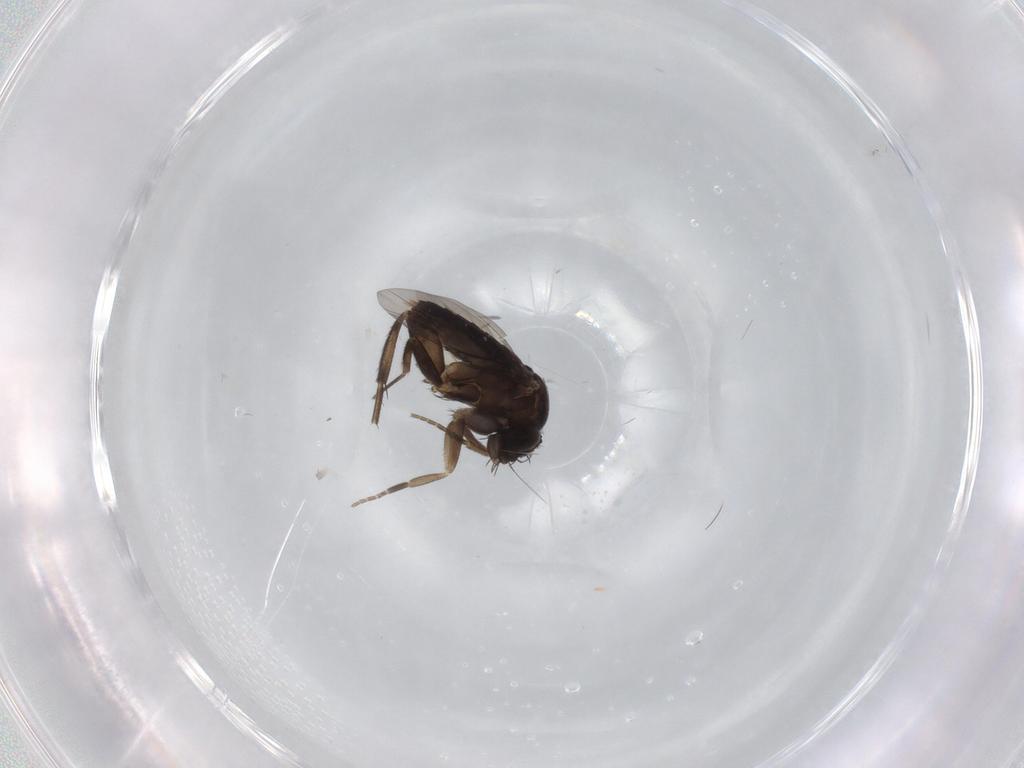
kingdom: Animalia
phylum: Arthropoda
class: Insecta
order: Diptera
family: Phoridae
